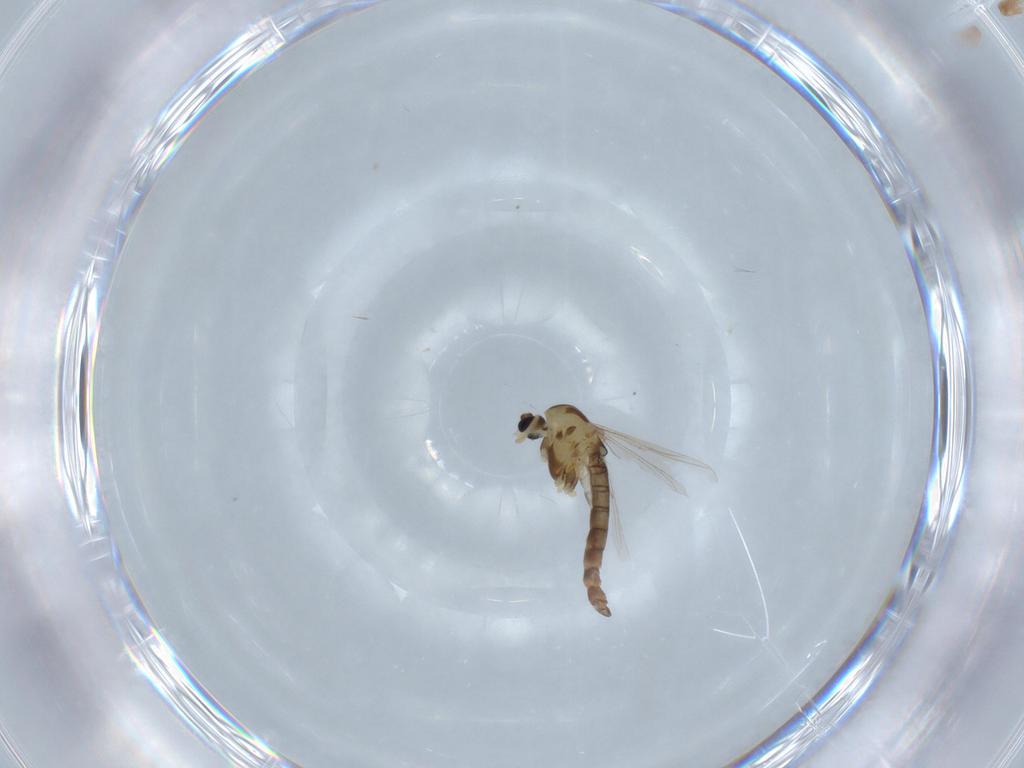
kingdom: Animalia
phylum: Arthropoda
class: Insecta
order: Diptera
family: Chironomidae
